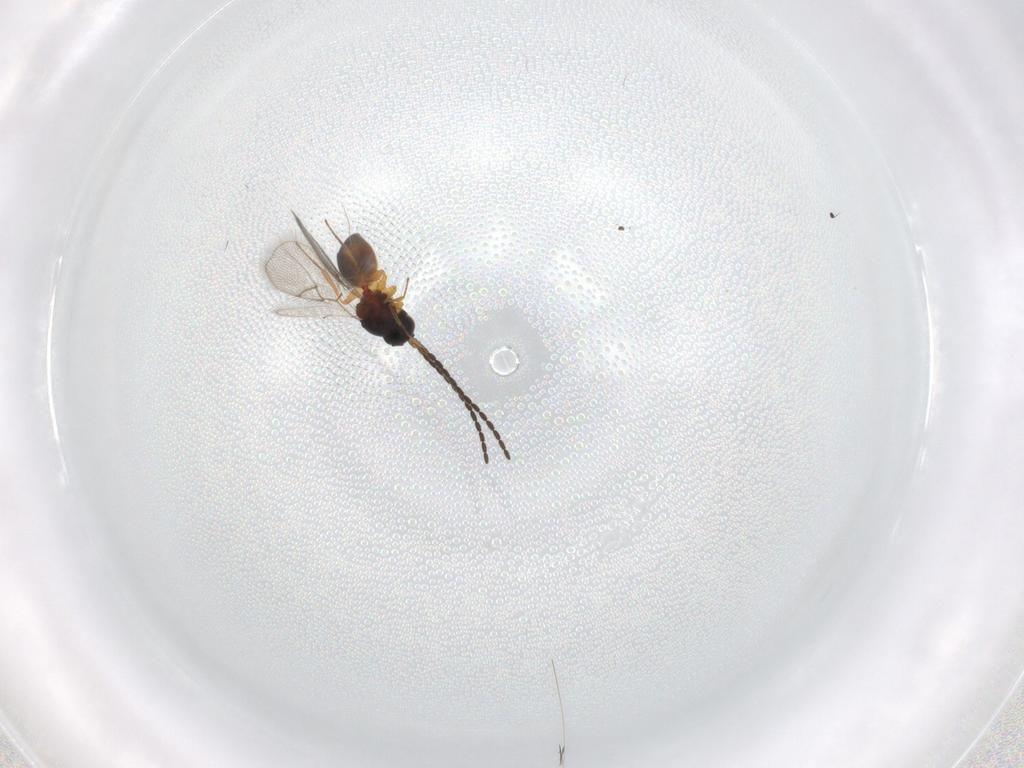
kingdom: Animalia
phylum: Arthropoda
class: Insecta
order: Hymenoptera
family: Figitidae
